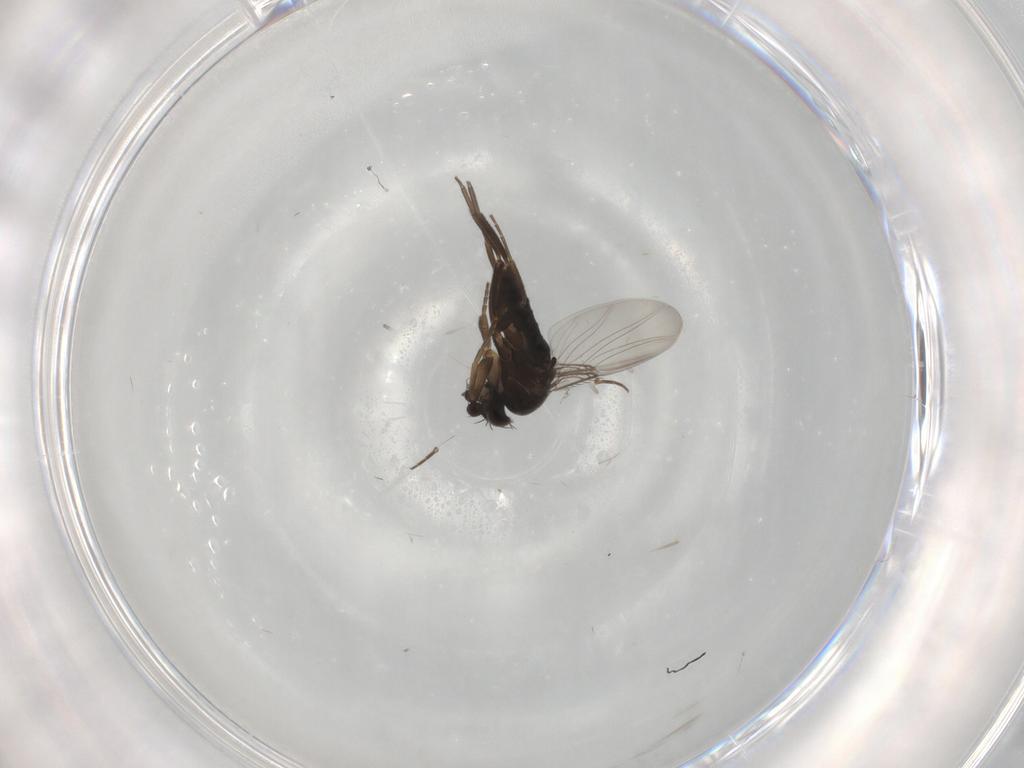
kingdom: Animalia
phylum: Arthropoda
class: Insecta
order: Diptera
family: Phoridae
